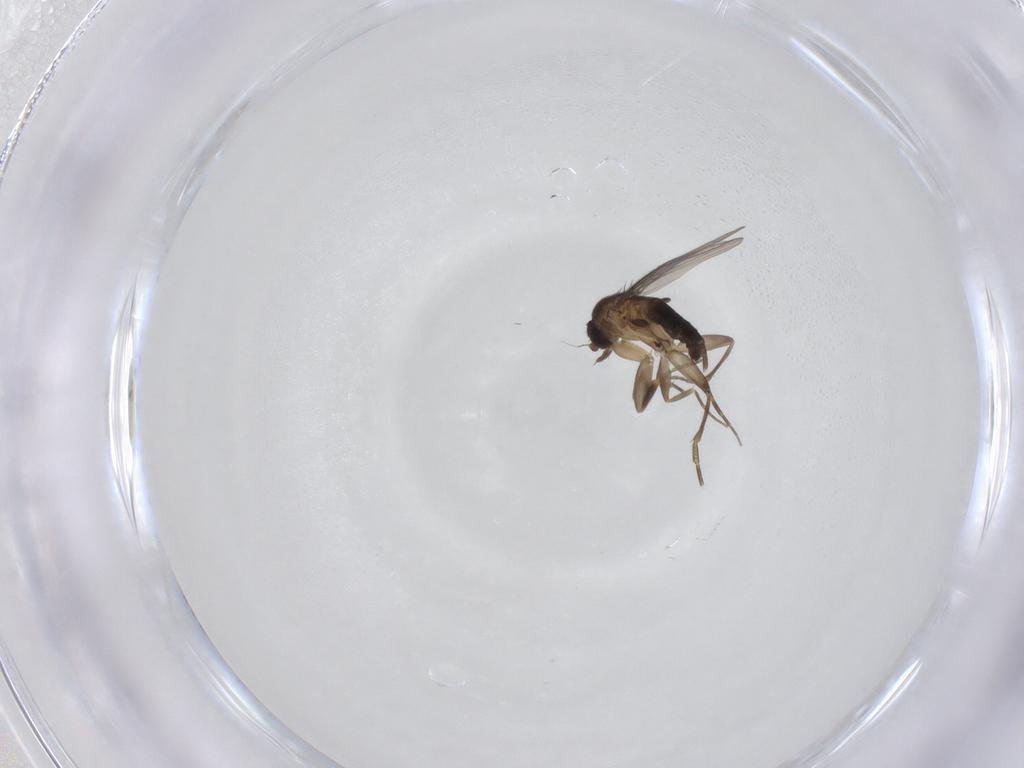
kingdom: Animalia
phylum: Arthropoda
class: Insecta
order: Diptera
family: Phoridae
